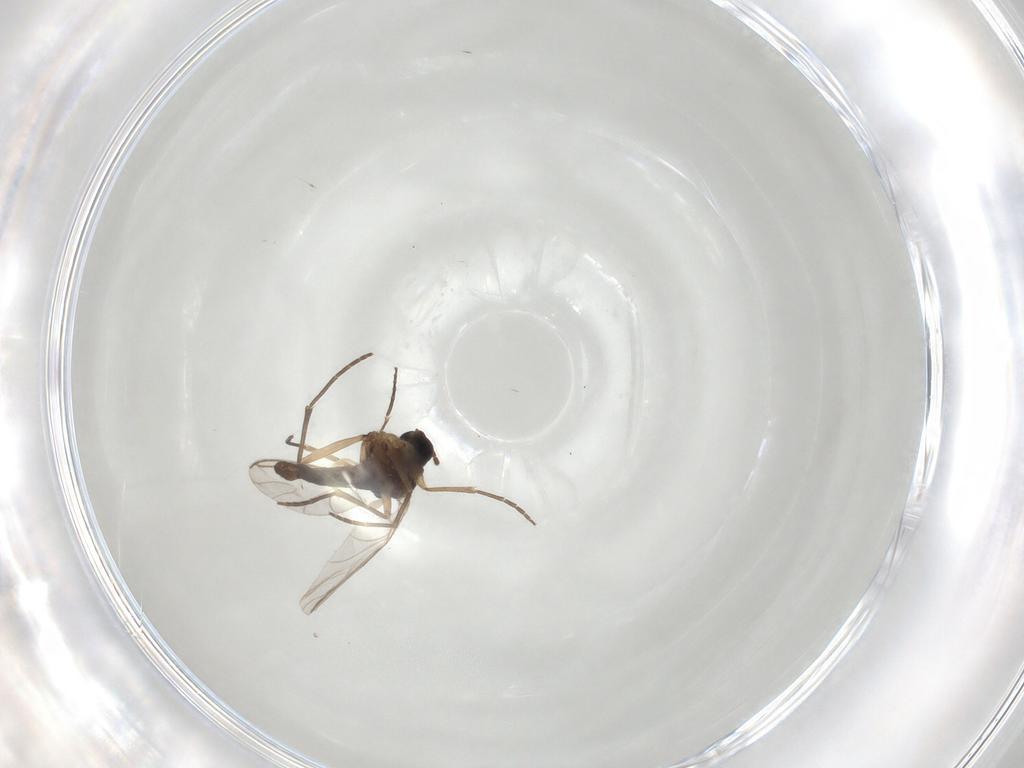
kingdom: Animalia
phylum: Arthropoda
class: Insecta
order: Diptera
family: Sciaridae
